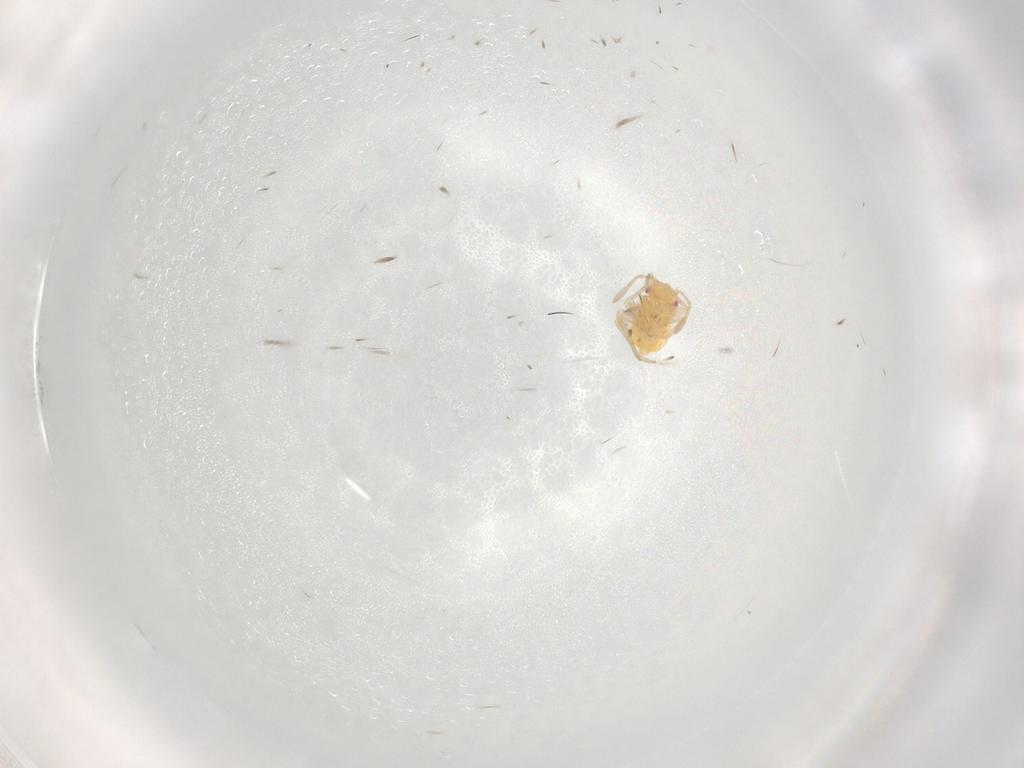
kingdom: Animalia
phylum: Arthropoda
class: Insecta
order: Hemiptera
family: Miridae
